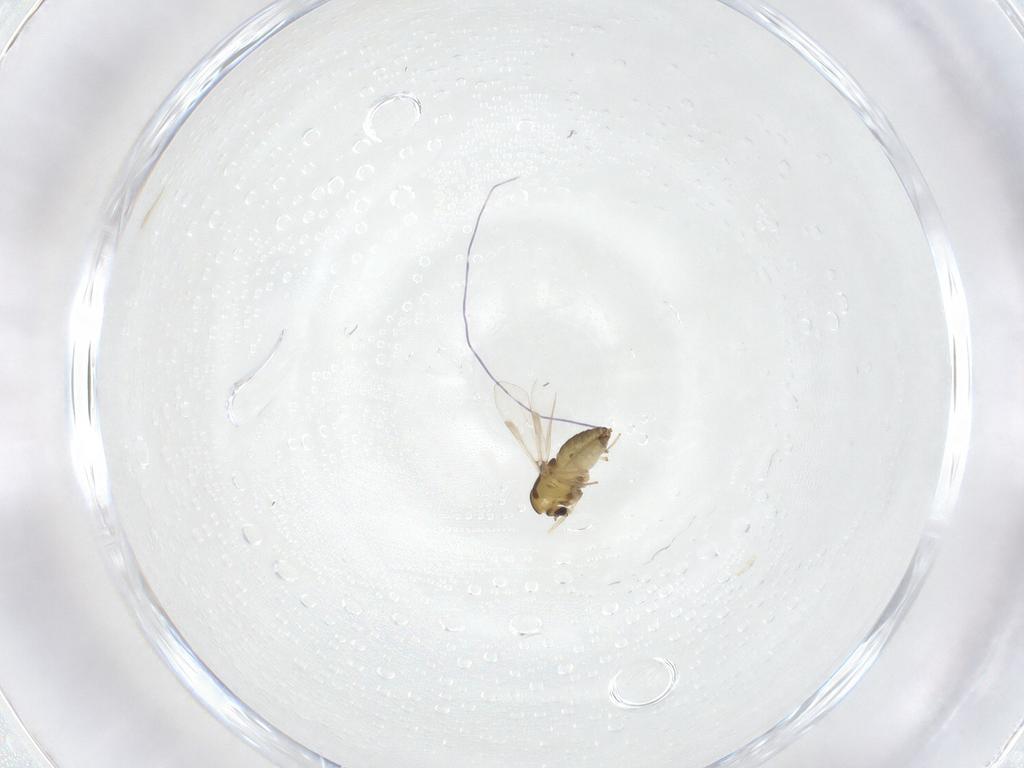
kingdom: Animalia
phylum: Arthropoda
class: Insecta
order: Diptera
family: Chironomidae
